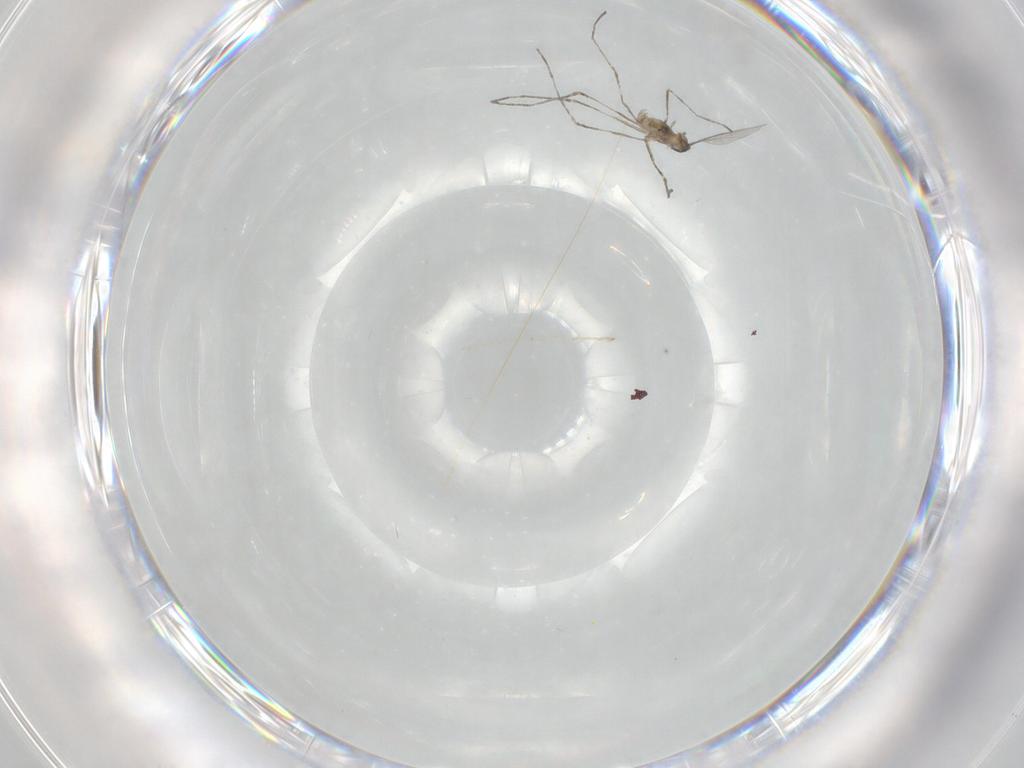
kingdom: Animalia
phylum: Arthropoda
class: Insecta
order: Diptera
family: Cecidomyiidae
